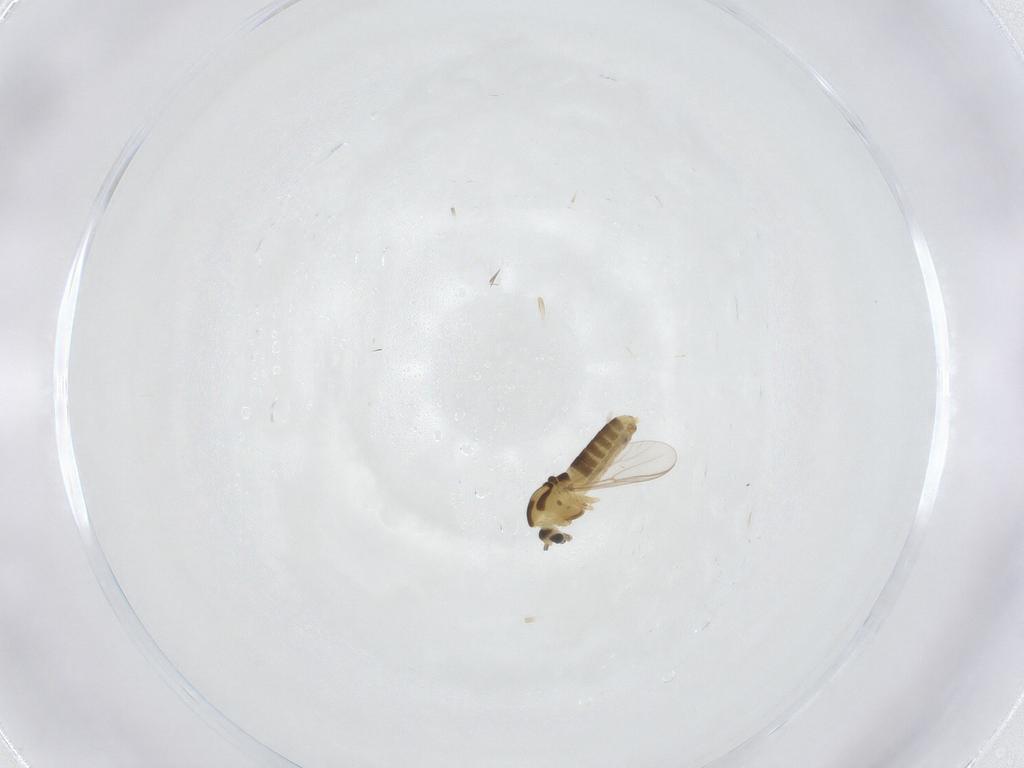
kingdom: Animalia
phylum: Arthropoda
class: Insecta
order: Diptera
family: Chironomidae
